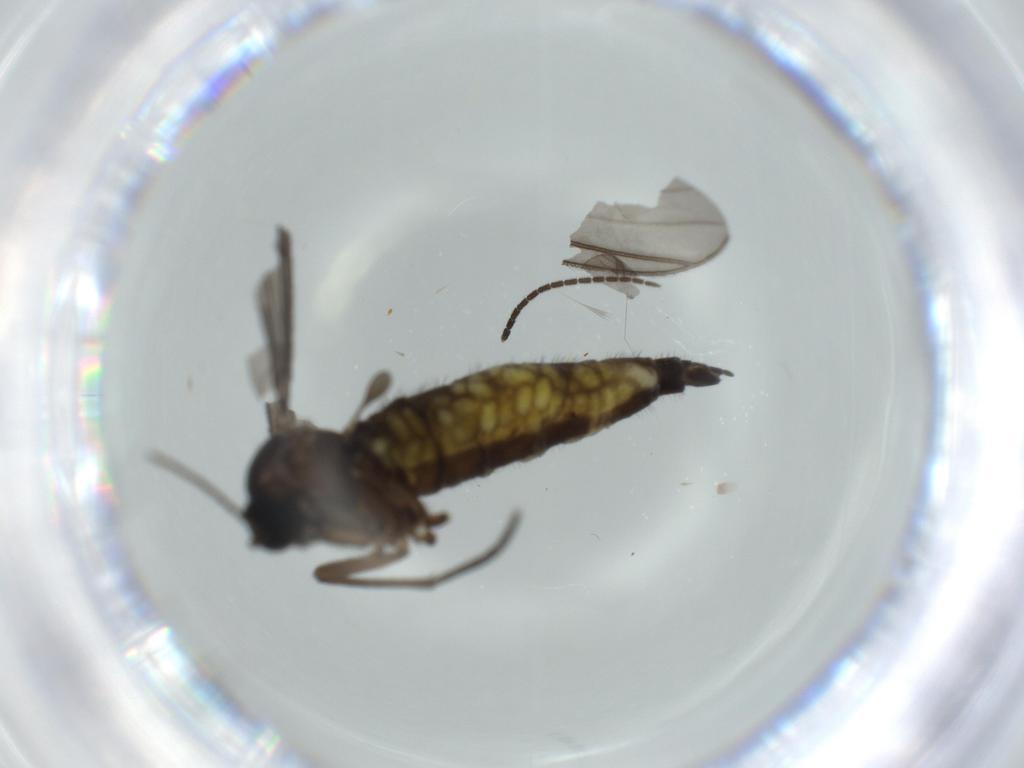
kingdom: Animalia
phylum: Arthropoda
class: Insecta
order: Diptera
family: Sciaridae
